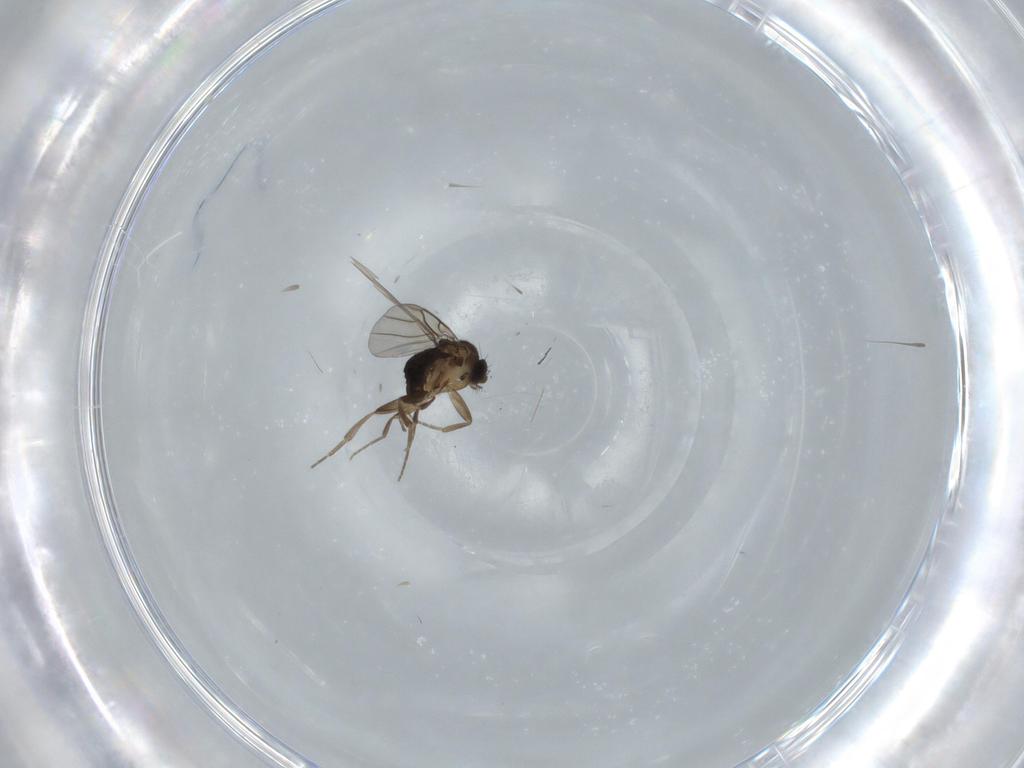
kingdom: Animalia
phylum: Arthropoda
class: Insecta
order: Diptera
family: Phoridae
